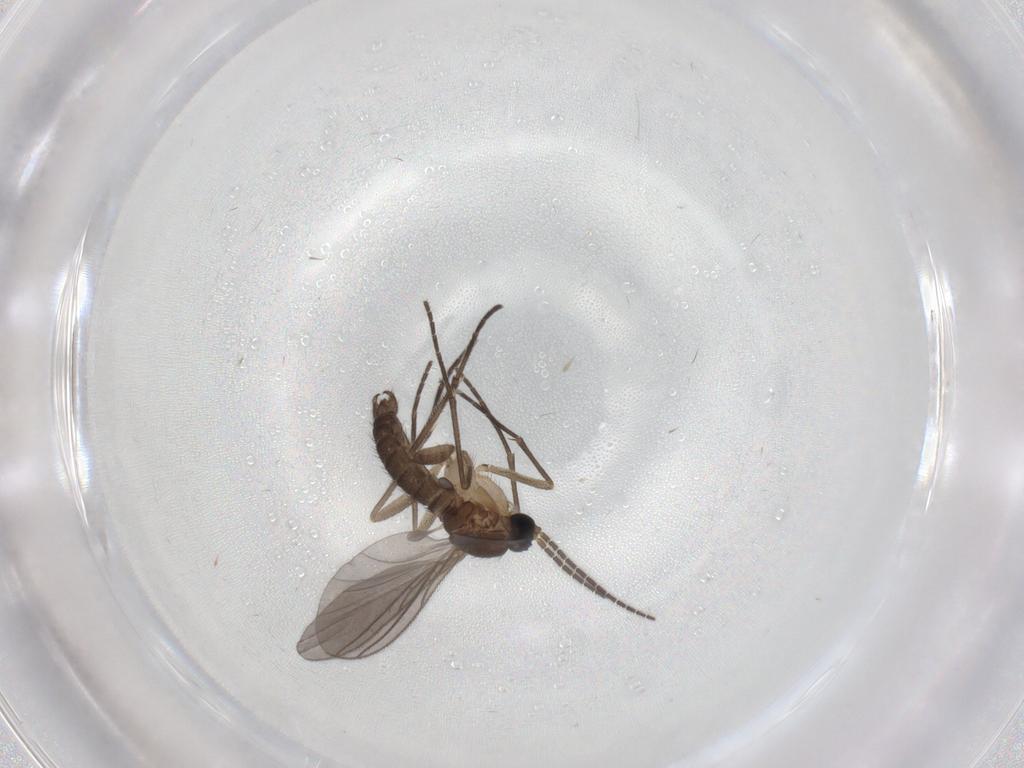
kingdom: Animalia
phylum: Arthropoda
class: Insecta
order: Diptera
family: Sciaridae
